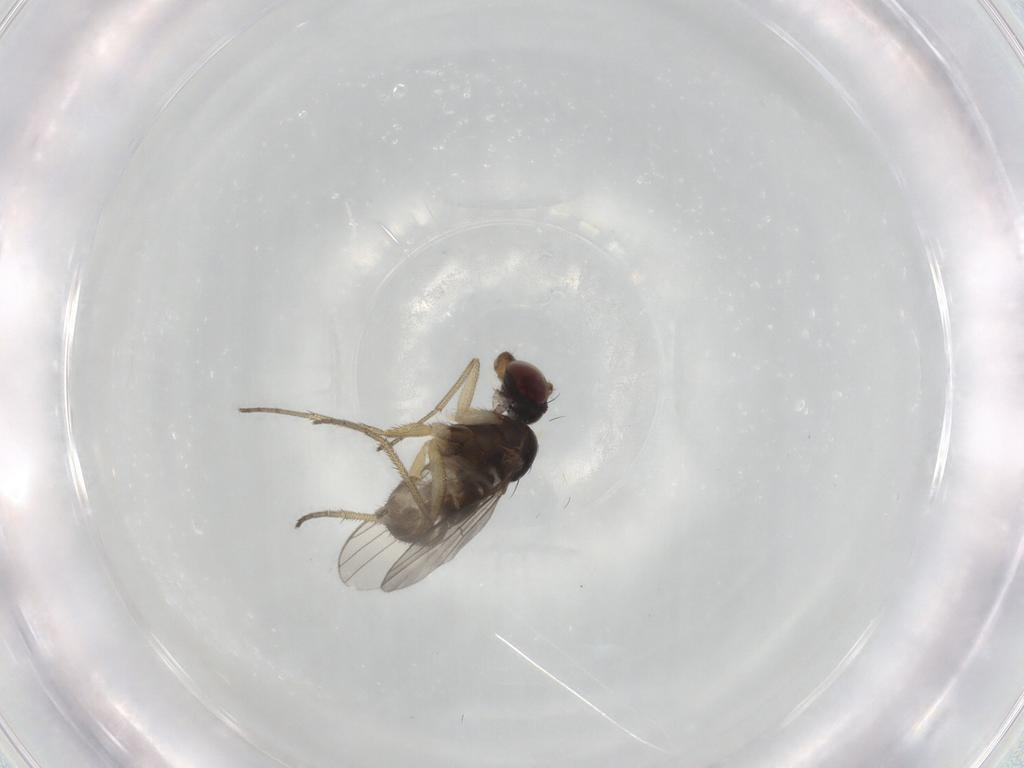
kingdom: Animalia
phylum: Arthropoda
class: Insecta
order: Diptera
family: Dolichopodidae
